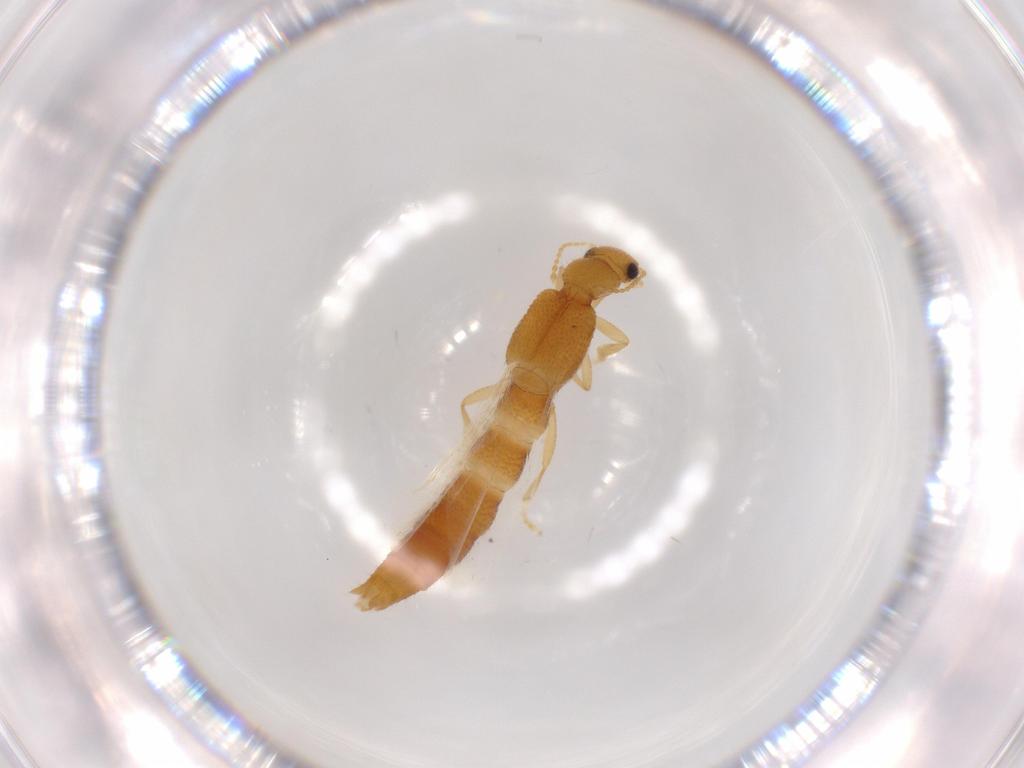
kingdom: Animalia
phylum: Arthropoda
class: Insecta
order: Coleoptera
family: Staphylinidae
